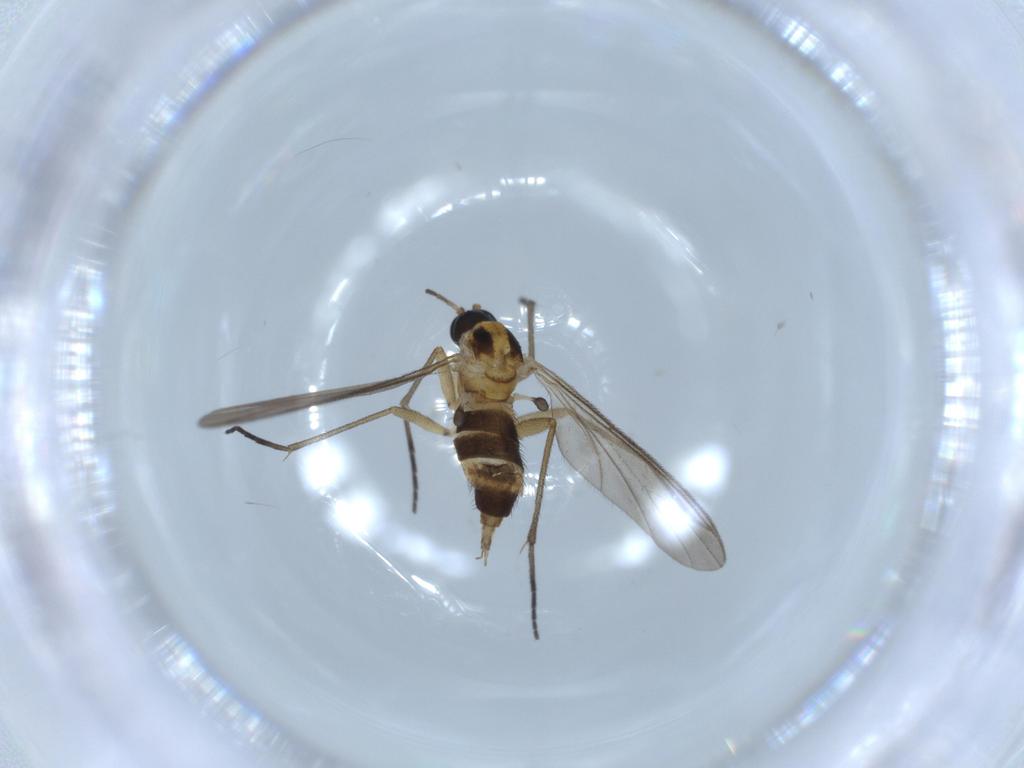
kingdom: Animalia
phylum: Arthropoda
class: Insecta
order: Diptera
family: Sciaridae
